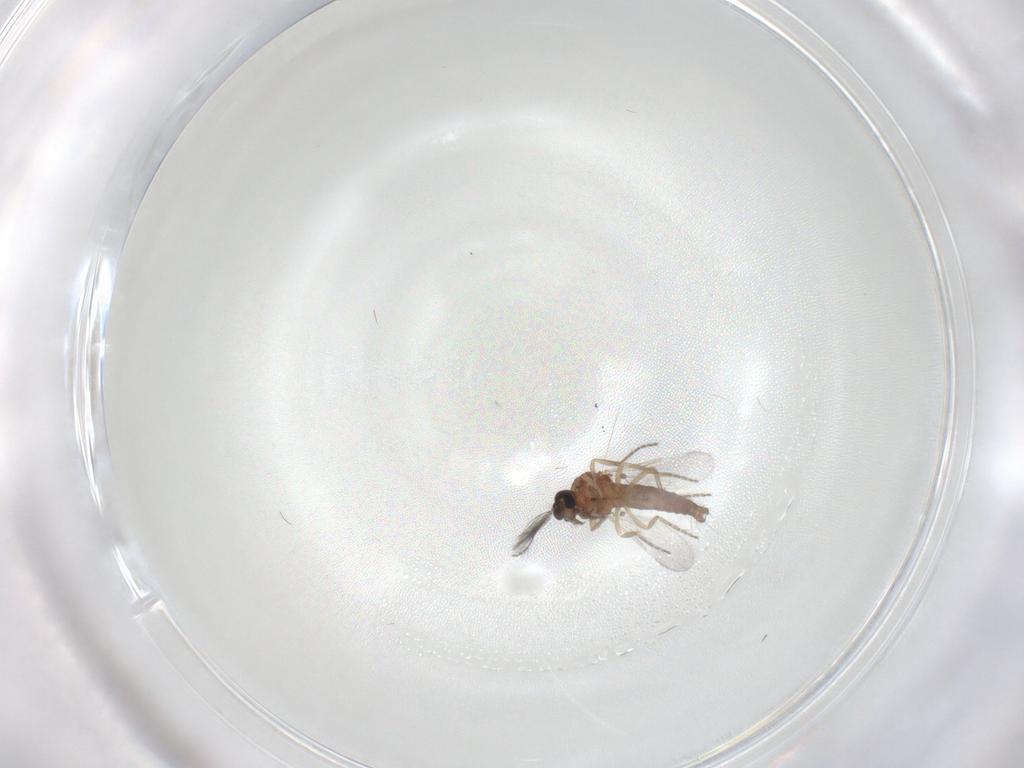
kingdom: Animalia
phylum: Arthropoda
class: Insecta
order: Diptera
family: Ceratopogonidae
